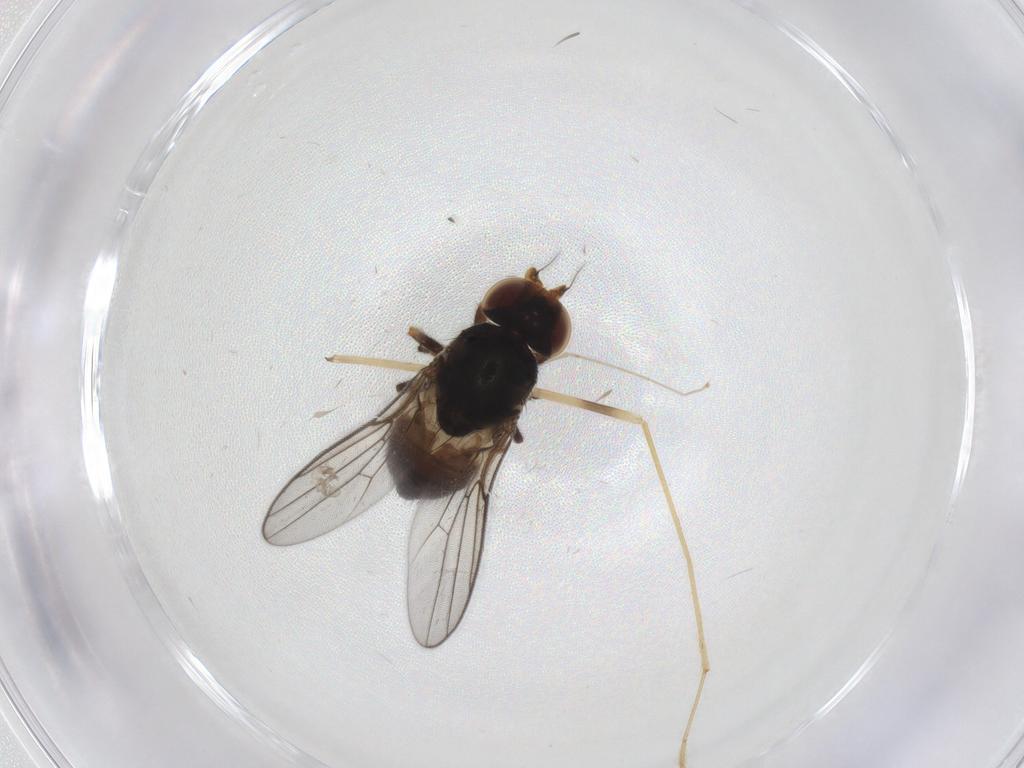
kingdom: Animalia
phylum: Arthropoda
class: Insecta
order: Diptera
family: Chloropidae
